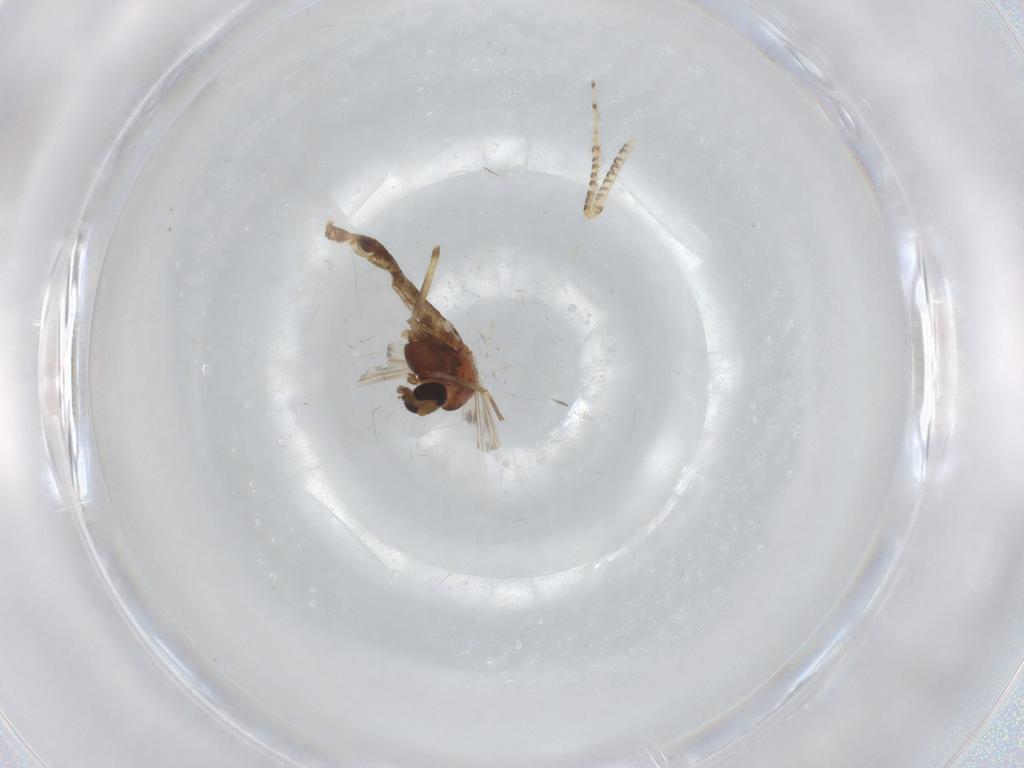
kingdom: Animalia
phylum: Arthropoda
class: Insecta
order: Diptera
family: Chironomidae
